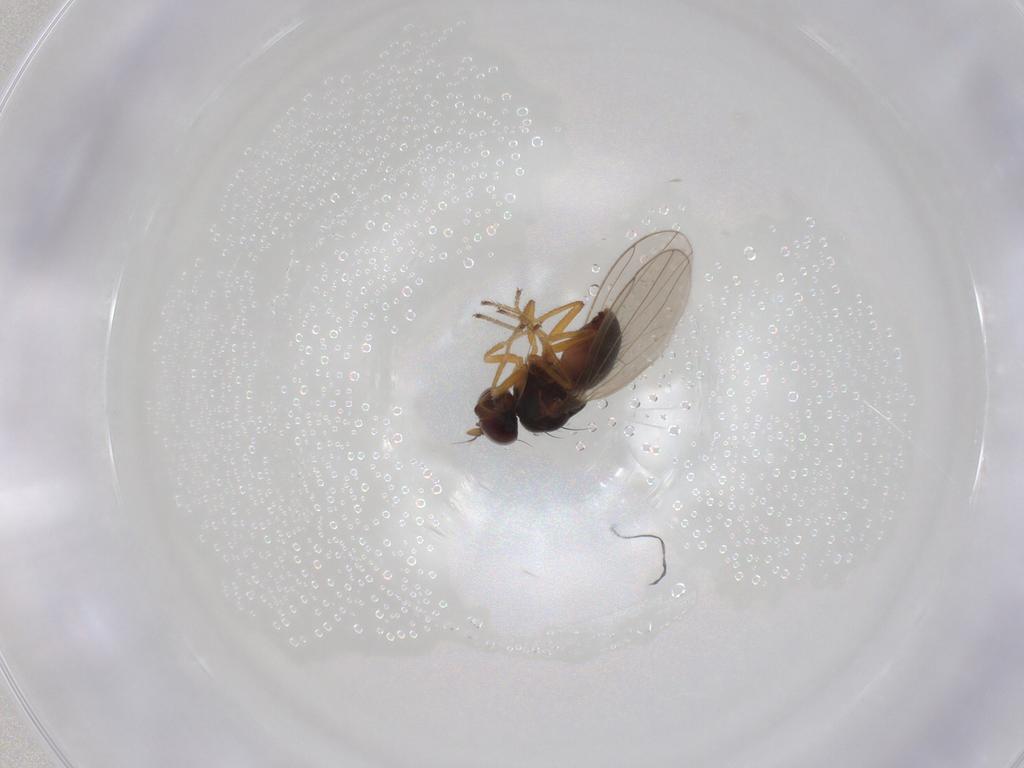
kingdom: Animalia
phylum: Arthropoda
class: Insecta
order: Diptera
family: Ephydridae
